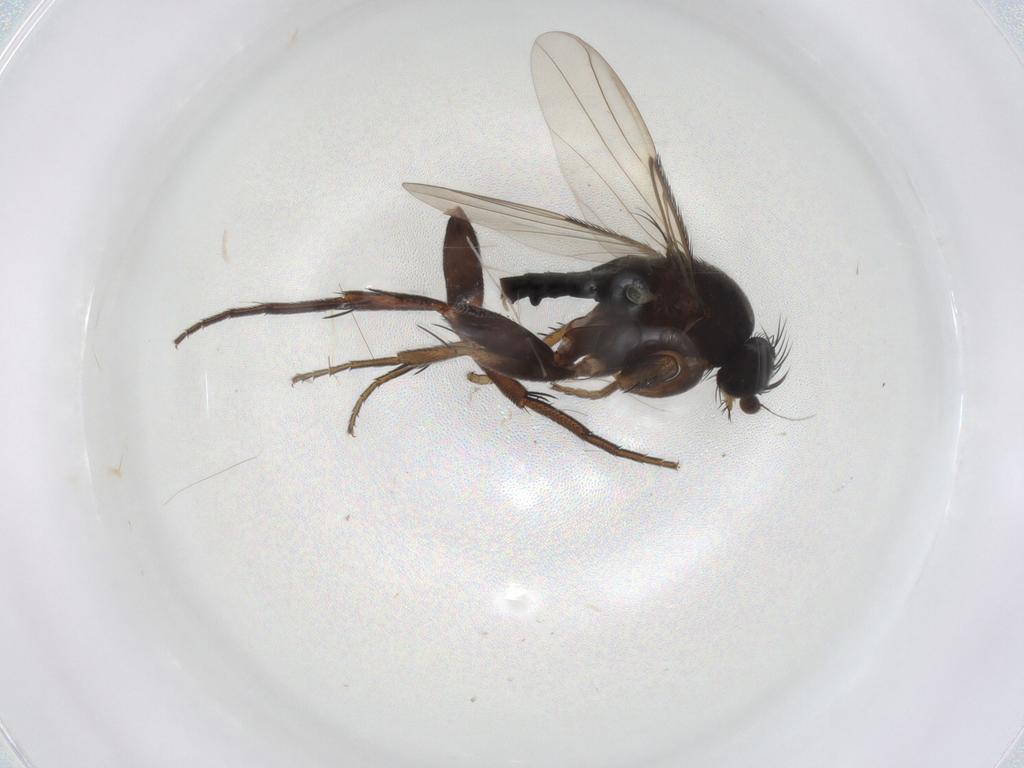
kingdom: Animalia
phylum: Arthropoda
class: Insecta
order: Diptera
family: Phoridae
